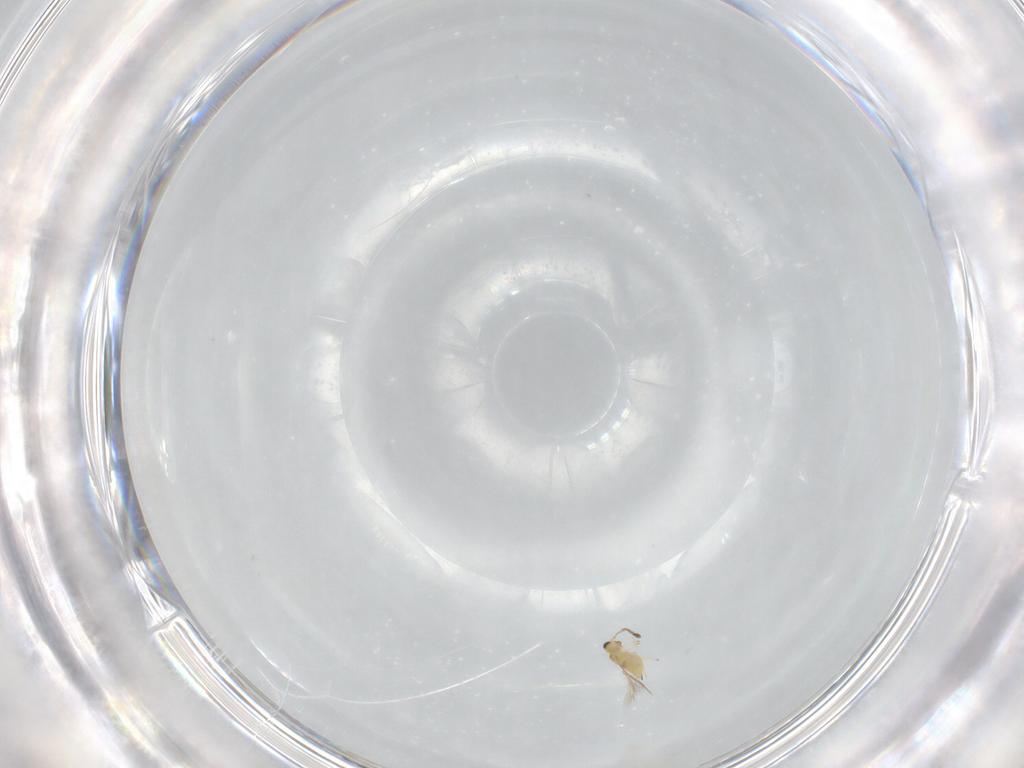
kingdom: Animalia
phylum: Arthropoda
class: Insecta
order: Hymenoptera
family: Mymaridae
